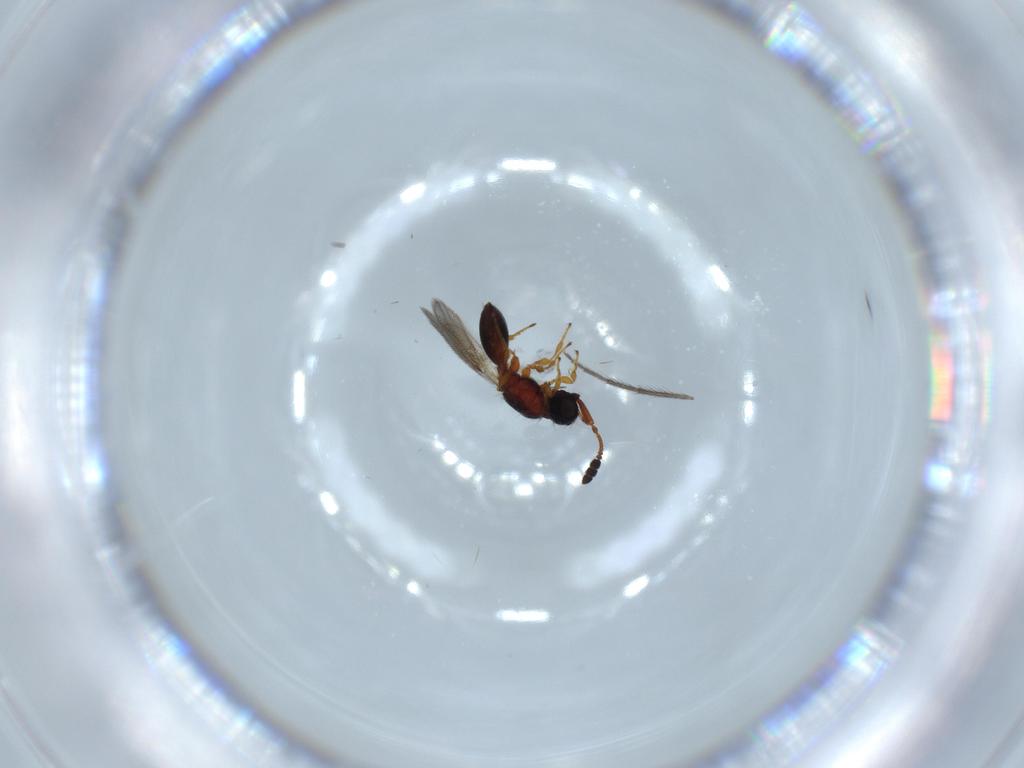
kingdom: Animalia
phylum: Arthropoda
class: Insecta
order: Hymenoptera
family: Diapriidae
